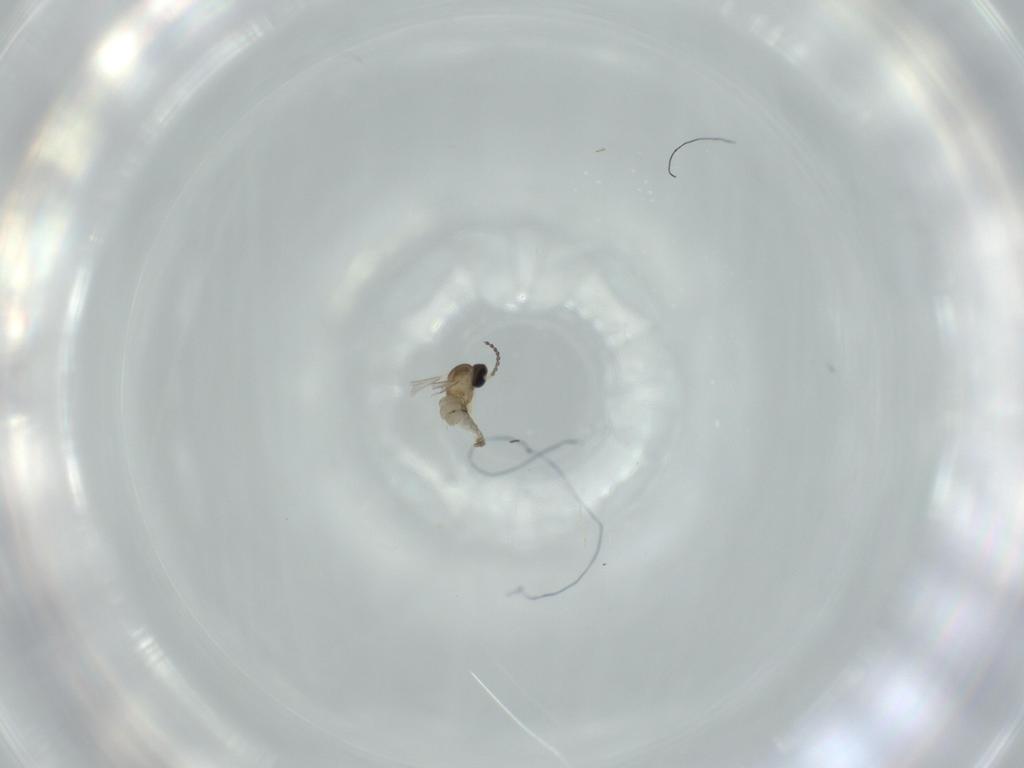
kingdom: Animalia
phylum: Arthropoda
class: Insecta
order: Diptera
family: Cecidomyiidae
